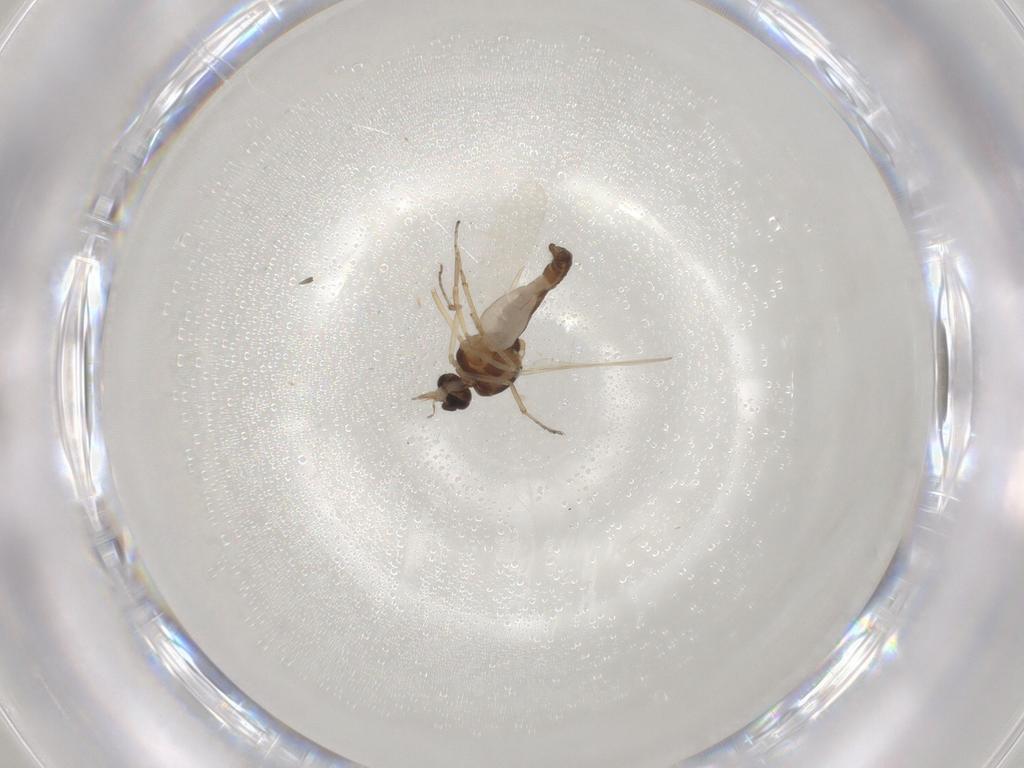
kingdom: Animalia
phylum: Arthropoda
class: Insecta
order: Diptera
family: Ceratopogonidae
